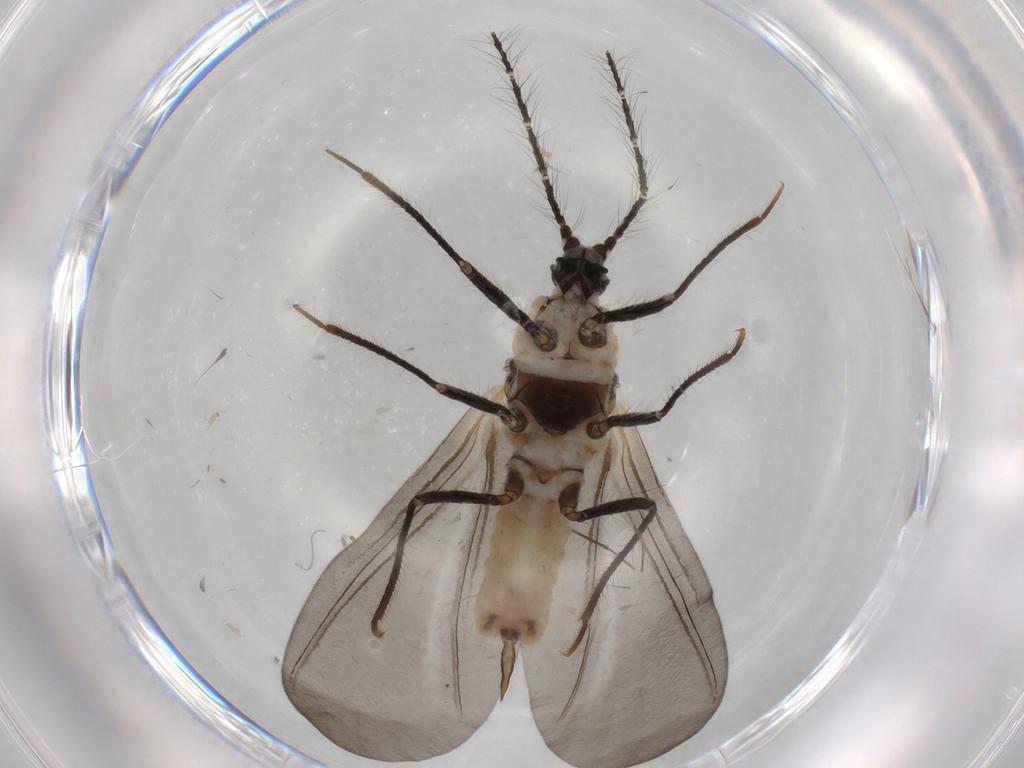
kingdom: Animalia
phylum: Arthropoda
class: Insecta
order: Hemiptera
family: Putoidae
